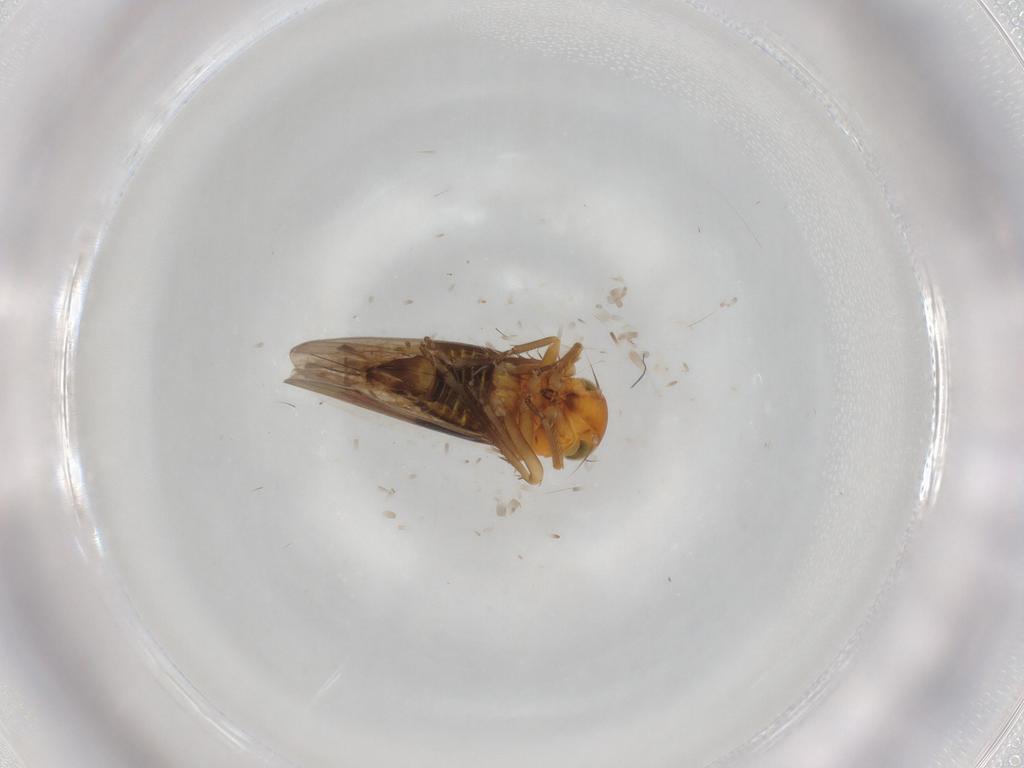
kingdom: Animalia
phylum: Arthropoda
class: Insecta
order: Hemiptera
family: Cicadellidae
